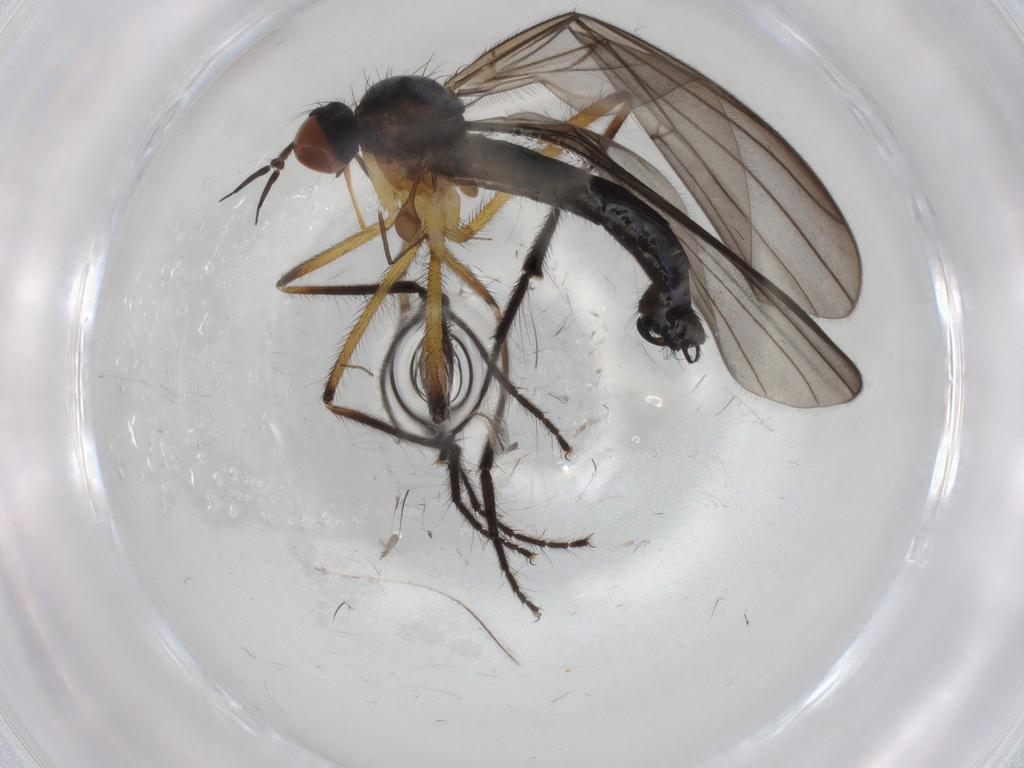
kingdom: Animalia
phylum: Arthropoda
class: Insecta
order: Diptera
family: Empididae
